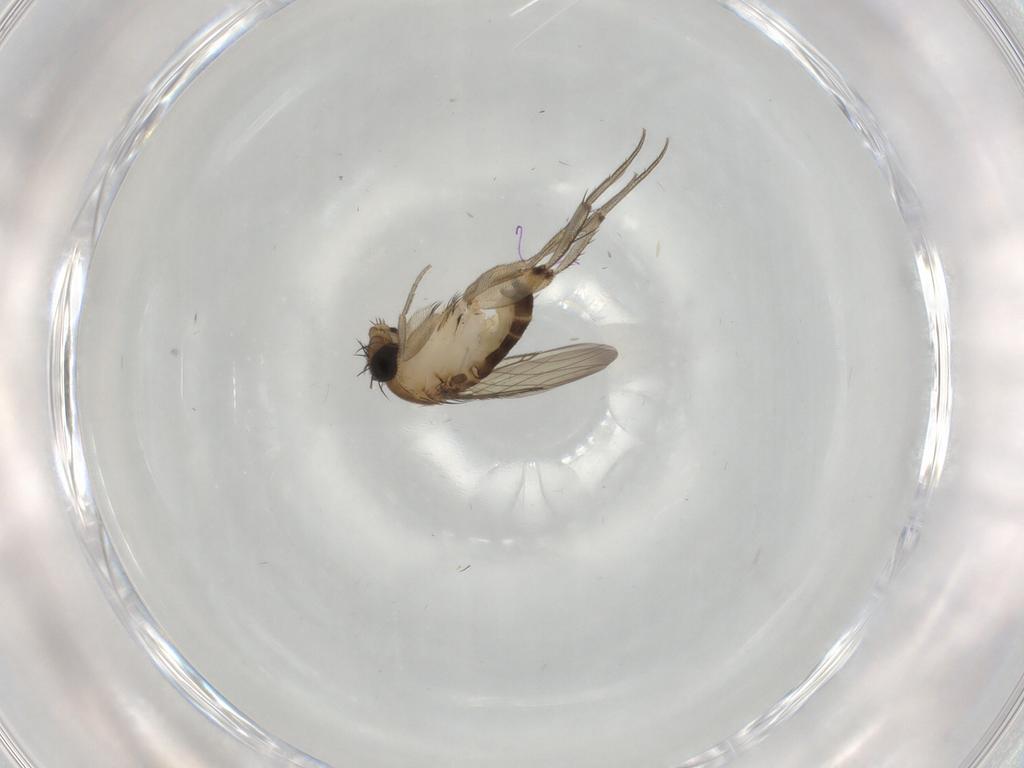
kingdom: Animalia
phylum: Arthropoda
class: Insecta
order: Diptera
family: Phoridae
